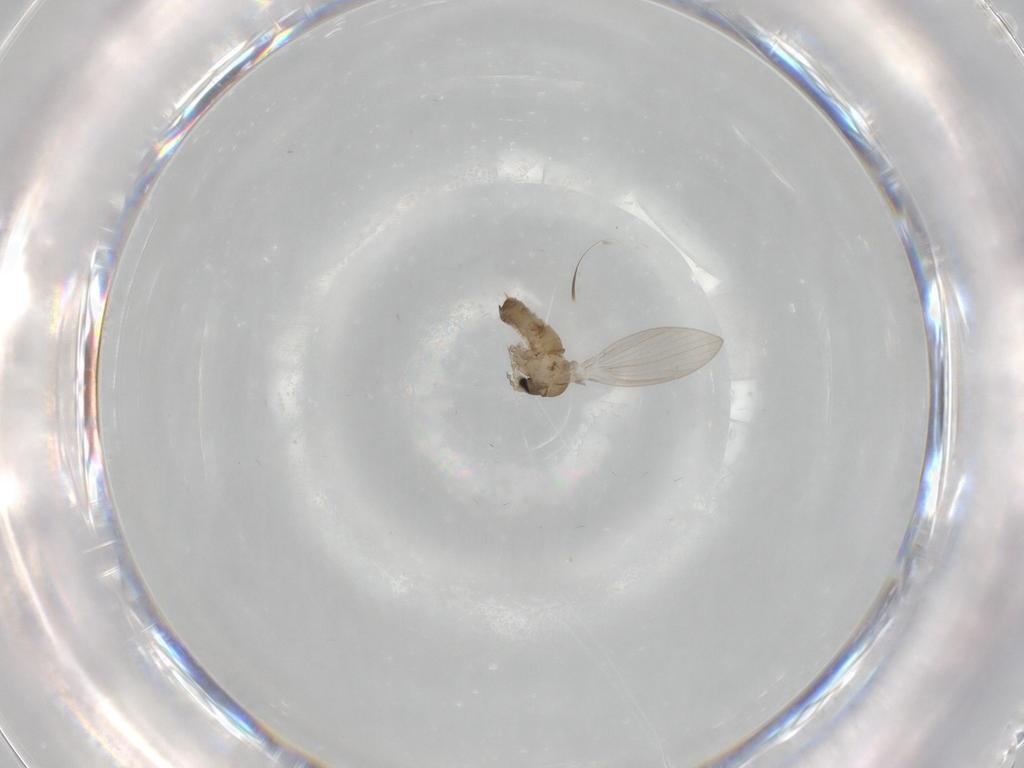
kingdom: Animalia
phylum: Arthropoda
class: Insecta
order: Diptera
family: Psychodidae
